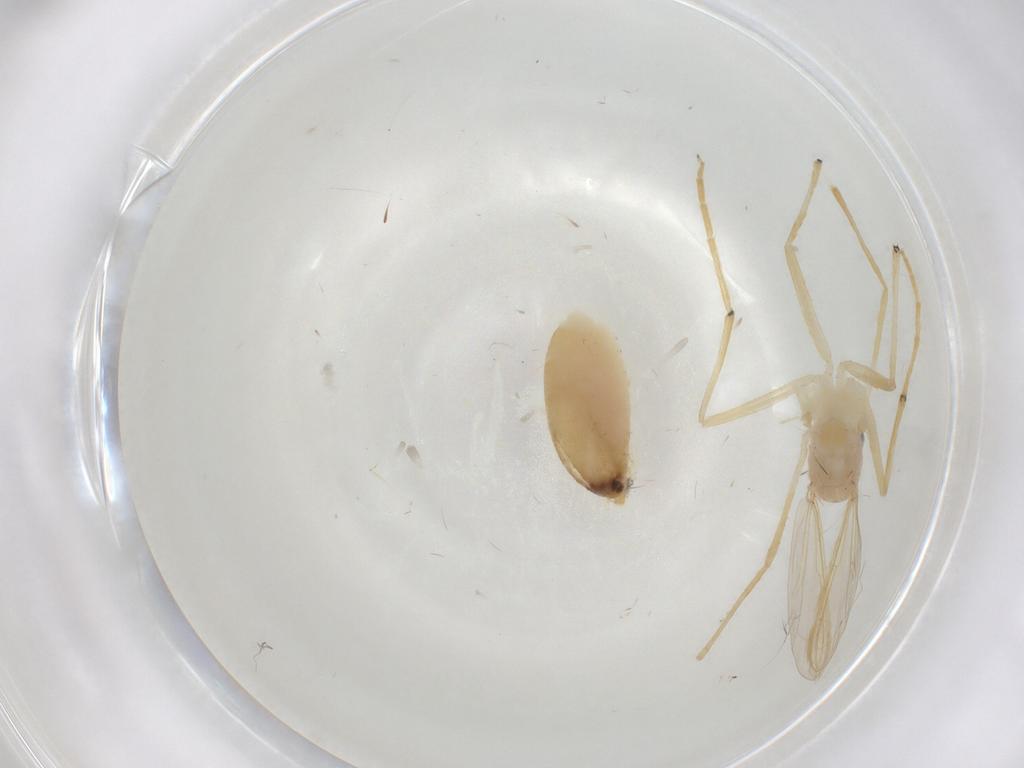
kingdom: Animalia
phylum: Arthropoda
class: Insecta
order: Diptera
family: Chironomidae
